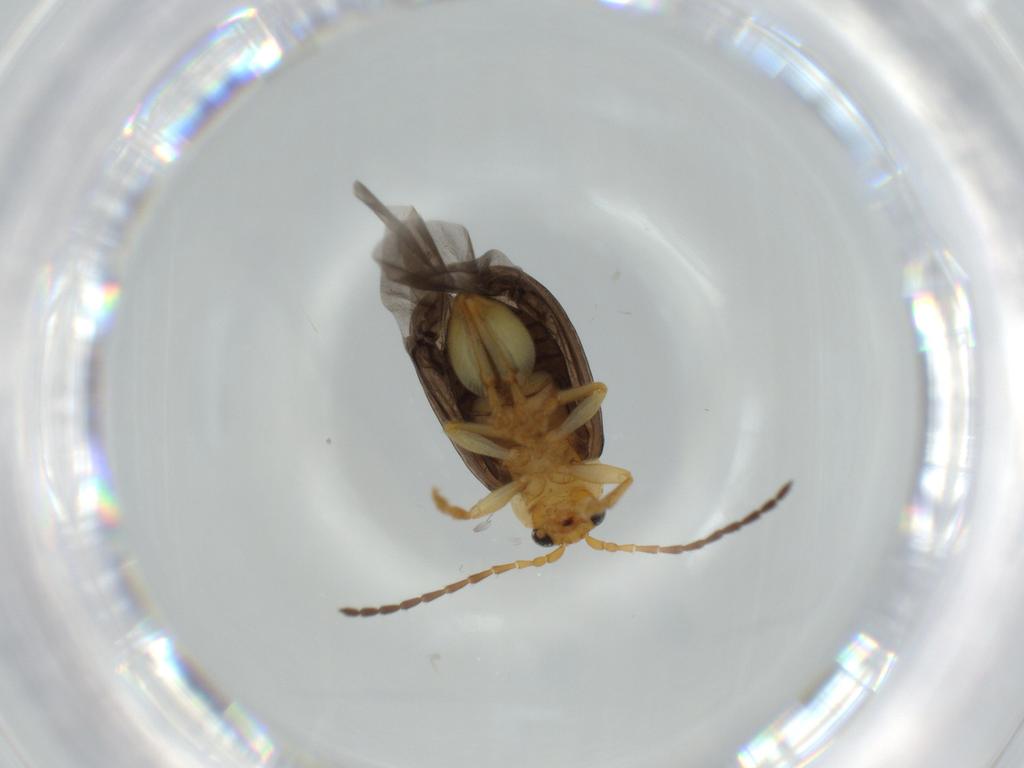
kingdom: Animalia
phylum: Arthropoda
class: Insecta
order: Coleoptera
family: Chrysomelidae
